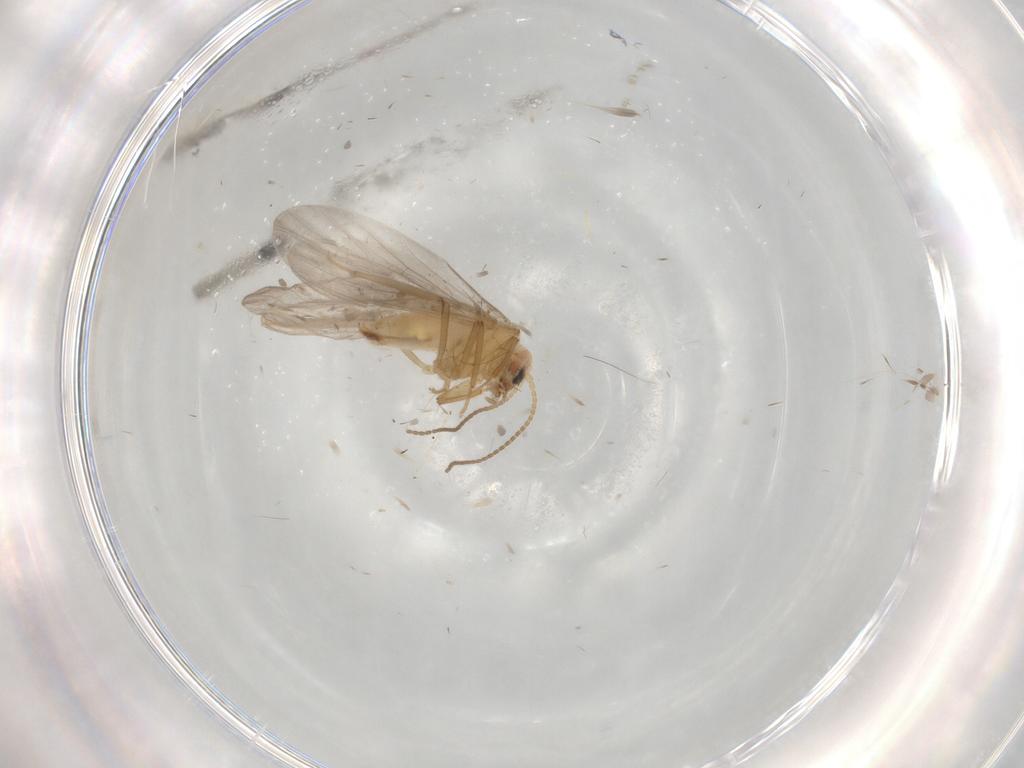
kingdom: Animalia
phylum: Arthropoda
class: Insecta
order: Neuroptera
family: Coniopterygidae
